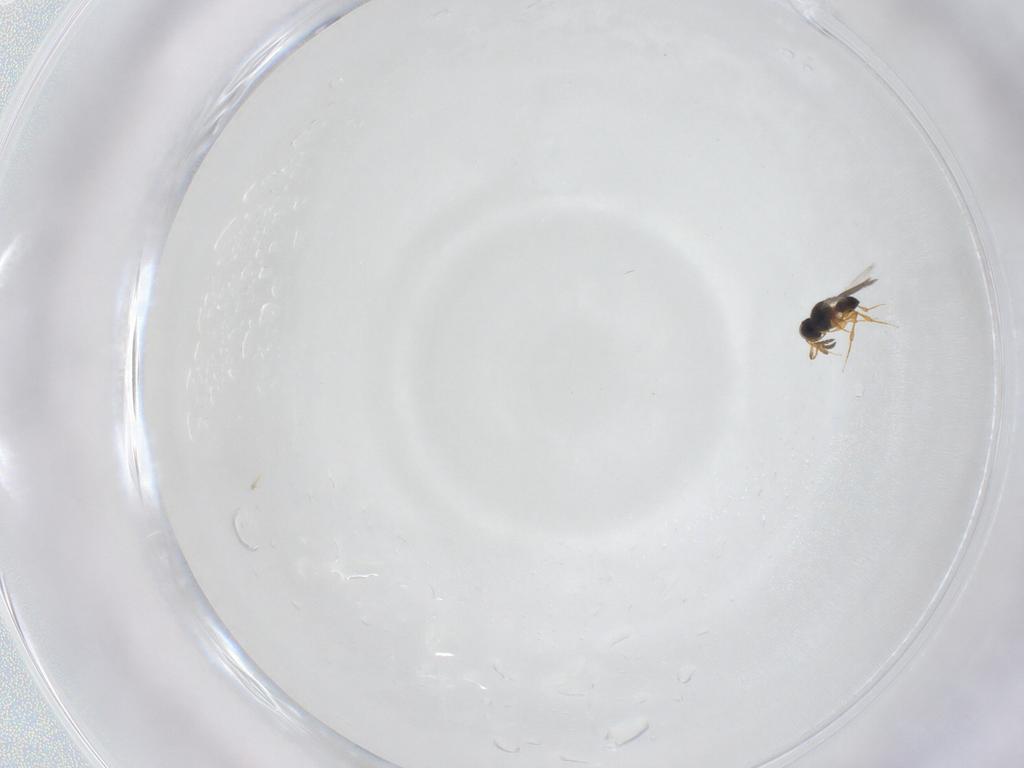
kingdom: Animalia
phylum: Arthropoda
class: Insecta
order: Hymenoptera
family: Platygastridae
